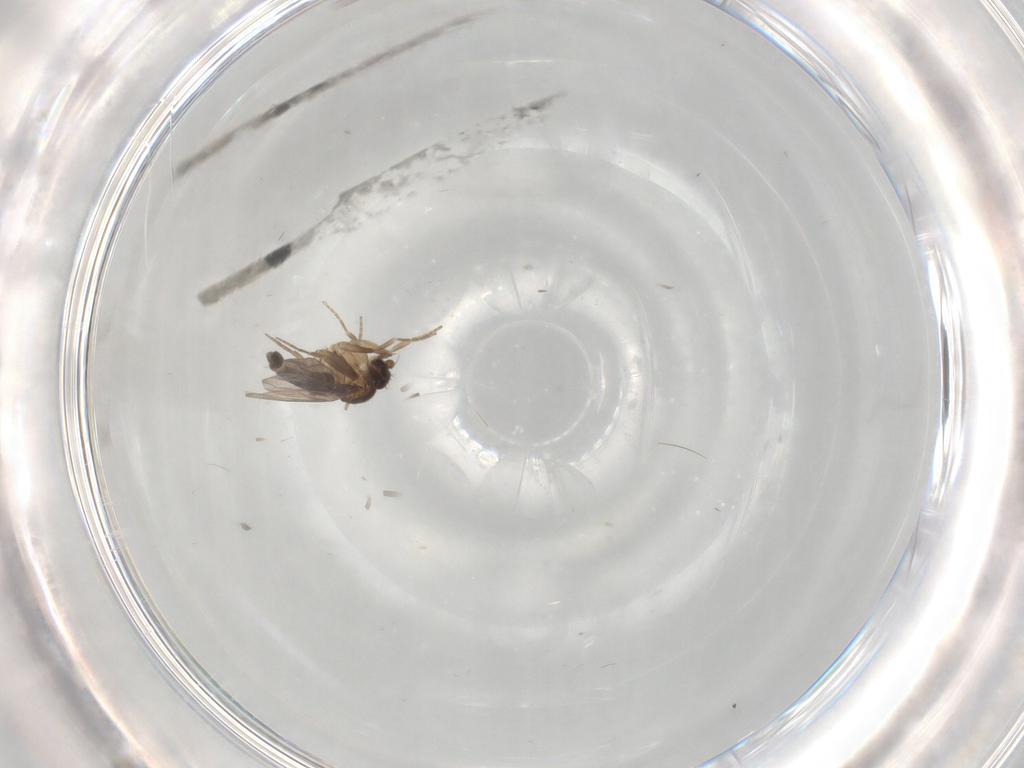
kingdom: Animalia
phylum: Arthropoda
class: Insecta
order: Diptera
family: Phoridae
